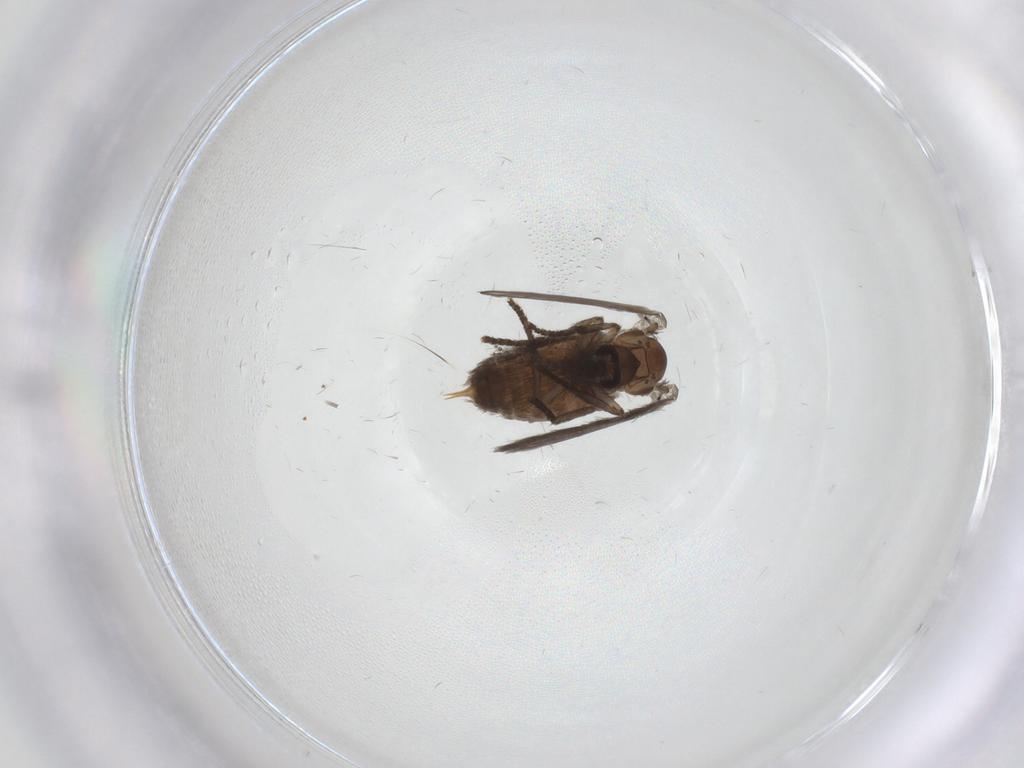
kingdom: Animalia
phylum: Arthropoda
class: Insecta
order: Diptera
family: Psychodidae
